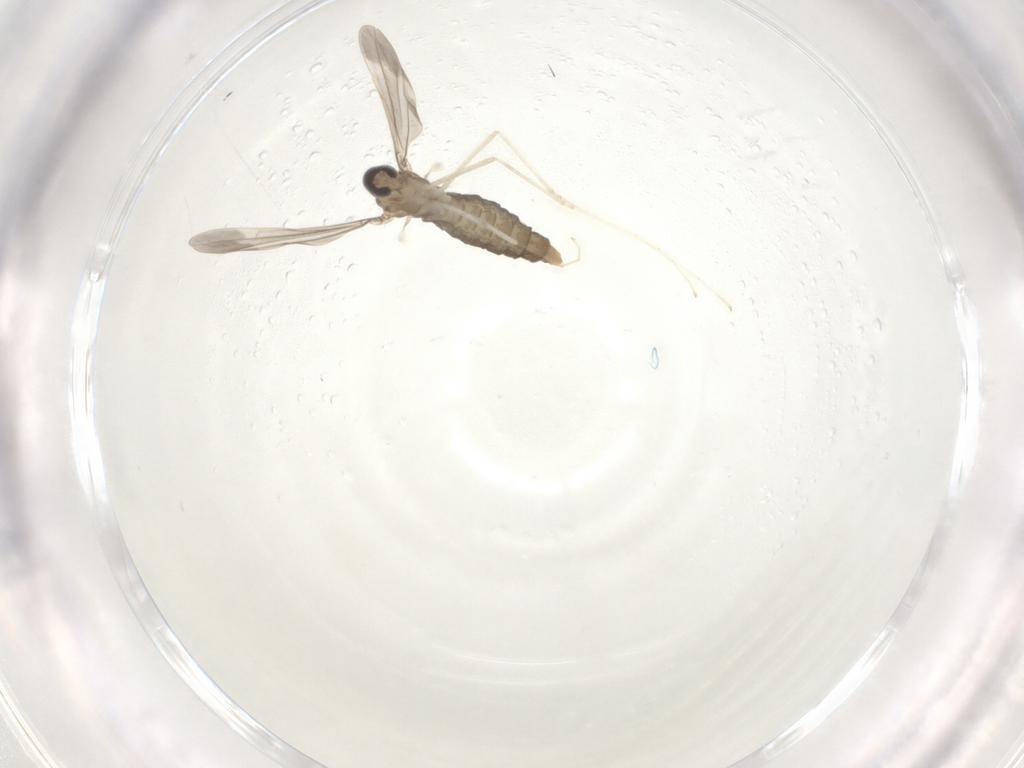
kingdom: Animalia
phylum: Arthropoda
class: Insecta
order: Diptera
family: Cecidomyiidae
